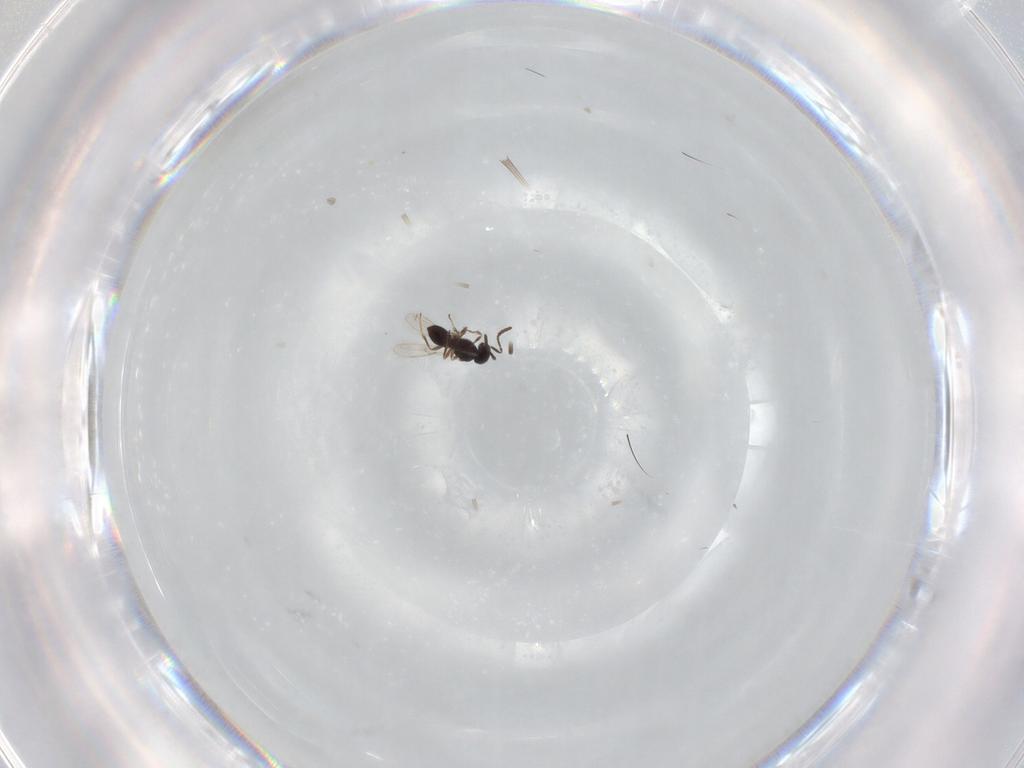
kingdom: Animalia
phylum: Arthropoda
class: Insecta
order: Hymenoptera
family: Scelionidae
